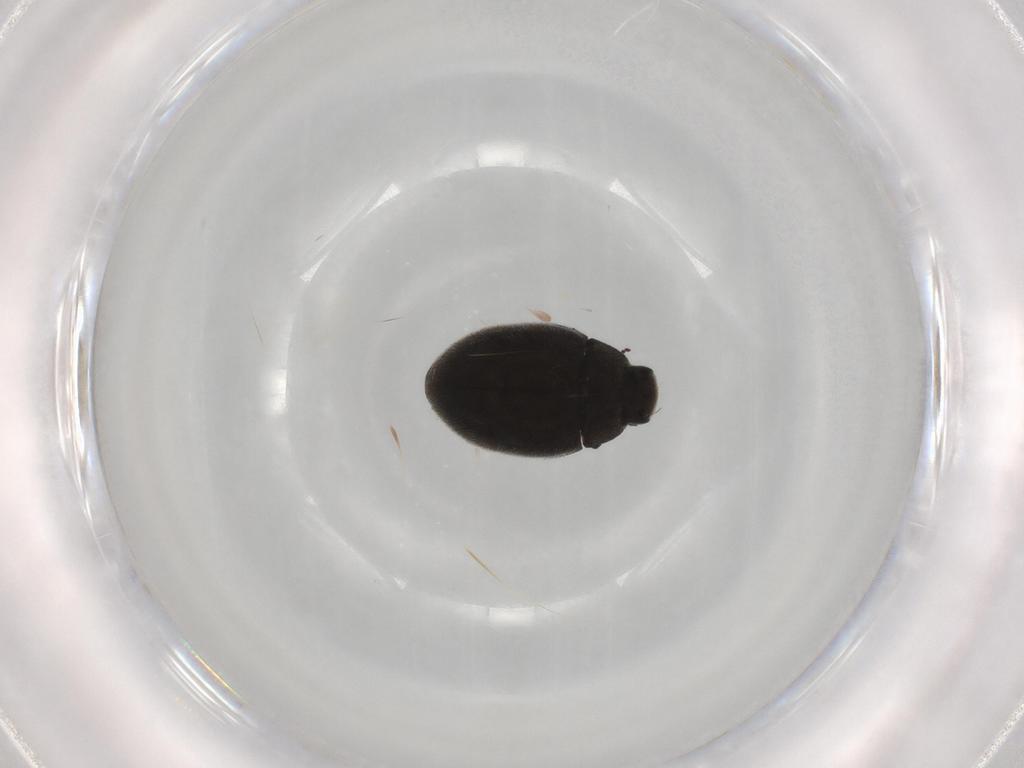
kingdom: Animalia
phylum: Arthropoda
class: Insecta
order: Coleoptera
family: Limnichidae
